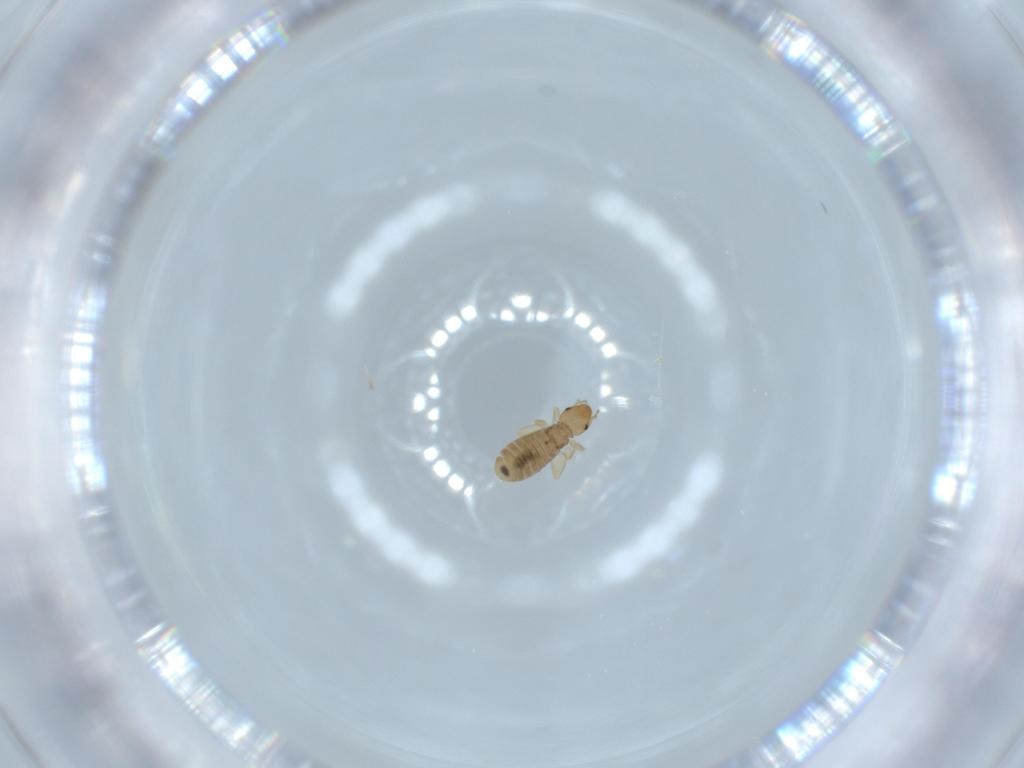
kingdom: Animalia
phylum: Arthropoda
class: Insecta
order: Psocodea
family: Liposcelididae
